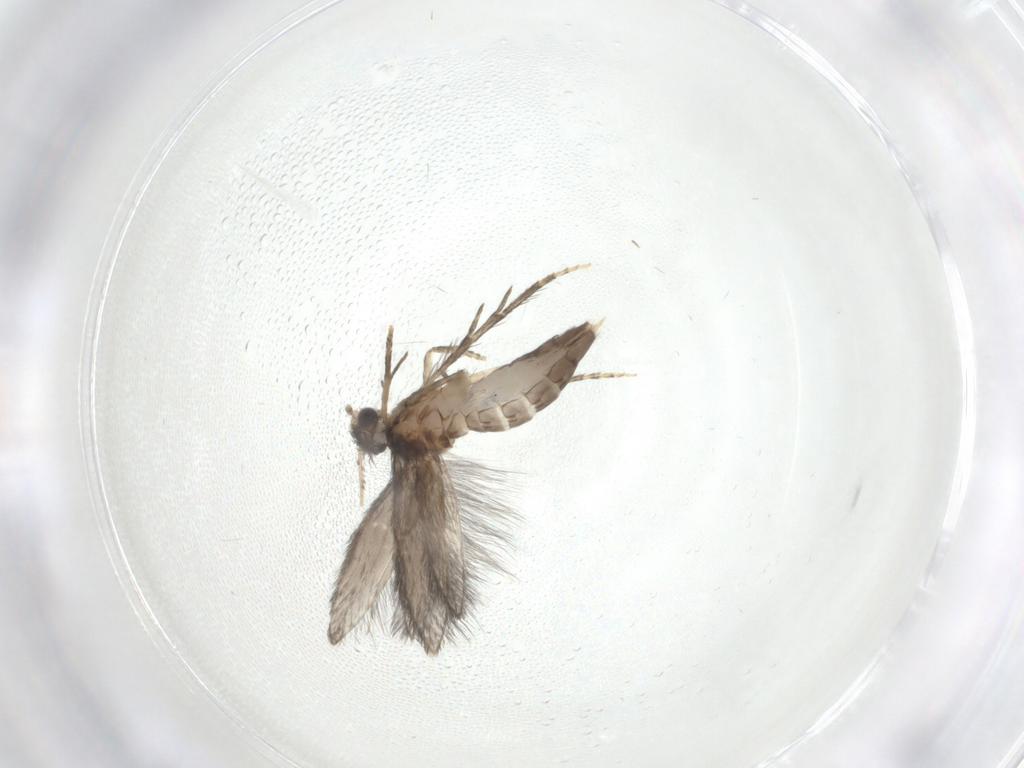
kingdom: Animalia
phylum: Arthropoda
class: Insecta
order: Trichoptera
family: Hydroptilidae
